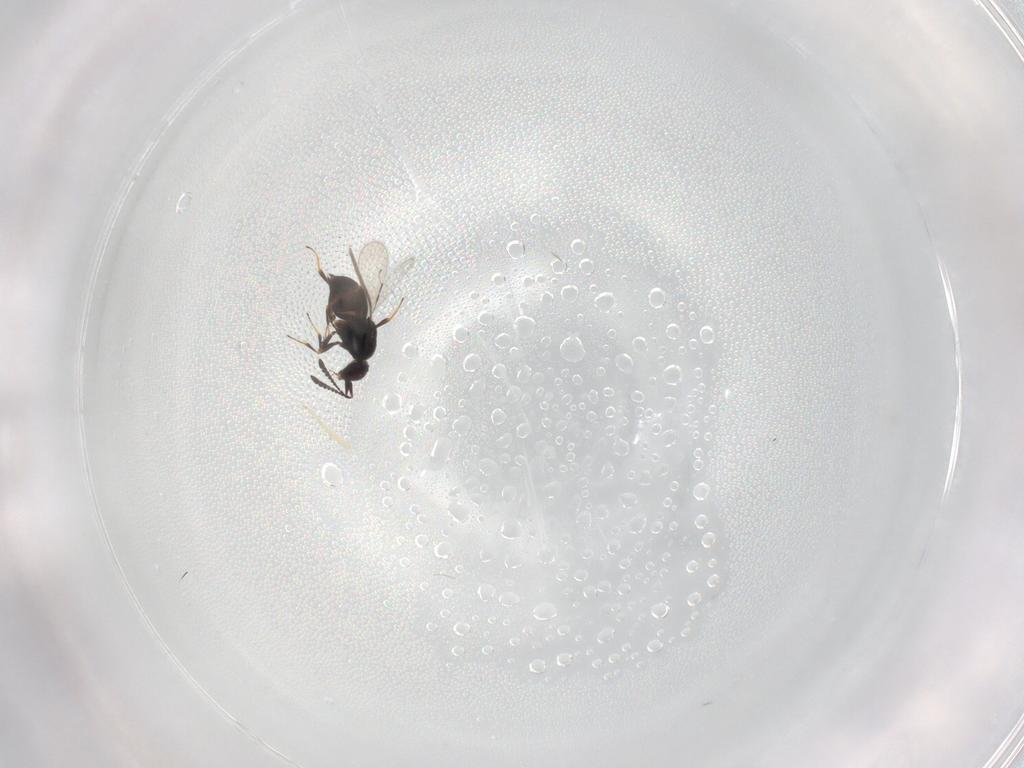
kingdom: Animalia
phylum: Arthropoda
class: Insecta
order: Hymenoptera
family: Ceraphronidae
